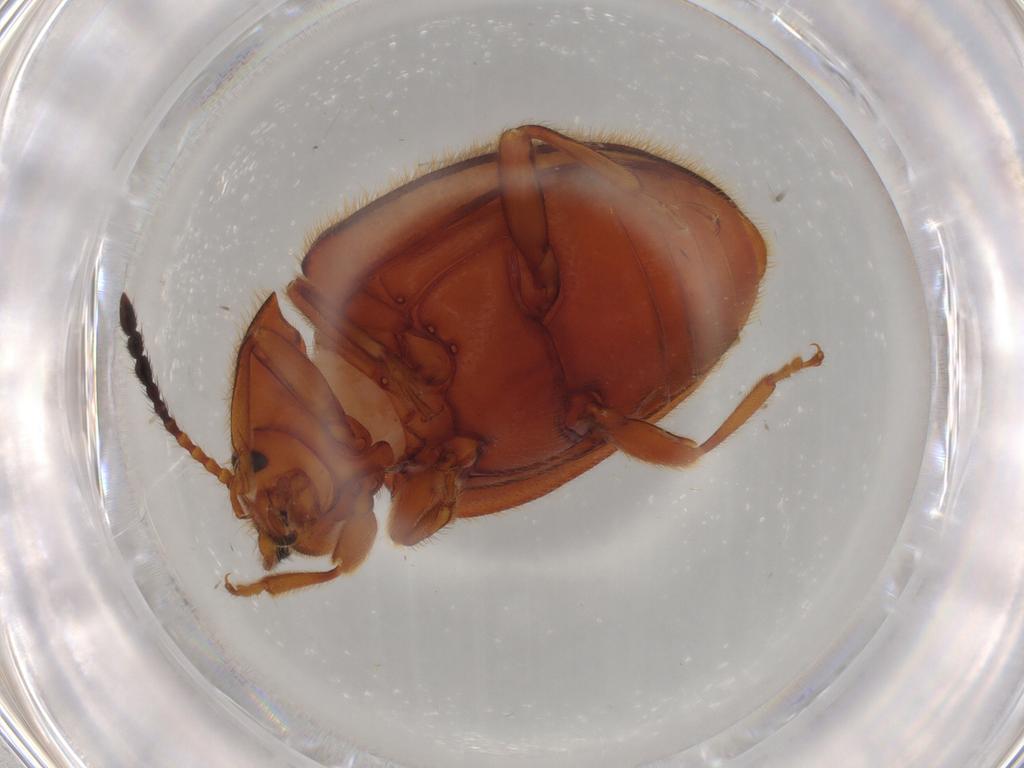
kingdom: Animalia
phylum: Arthropoda
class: Insecta
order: Coleoptera
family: Endomychidae
